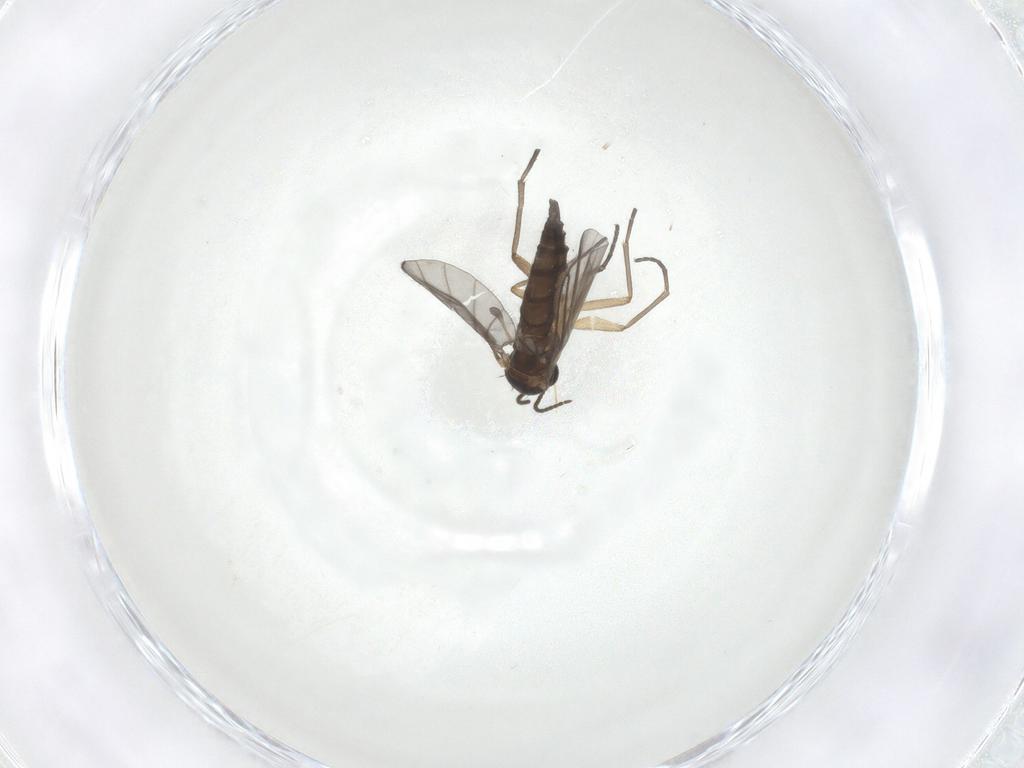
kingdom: Animalia
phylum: Arthropoda
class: Insecta
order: Diptera
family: Sciaridae
